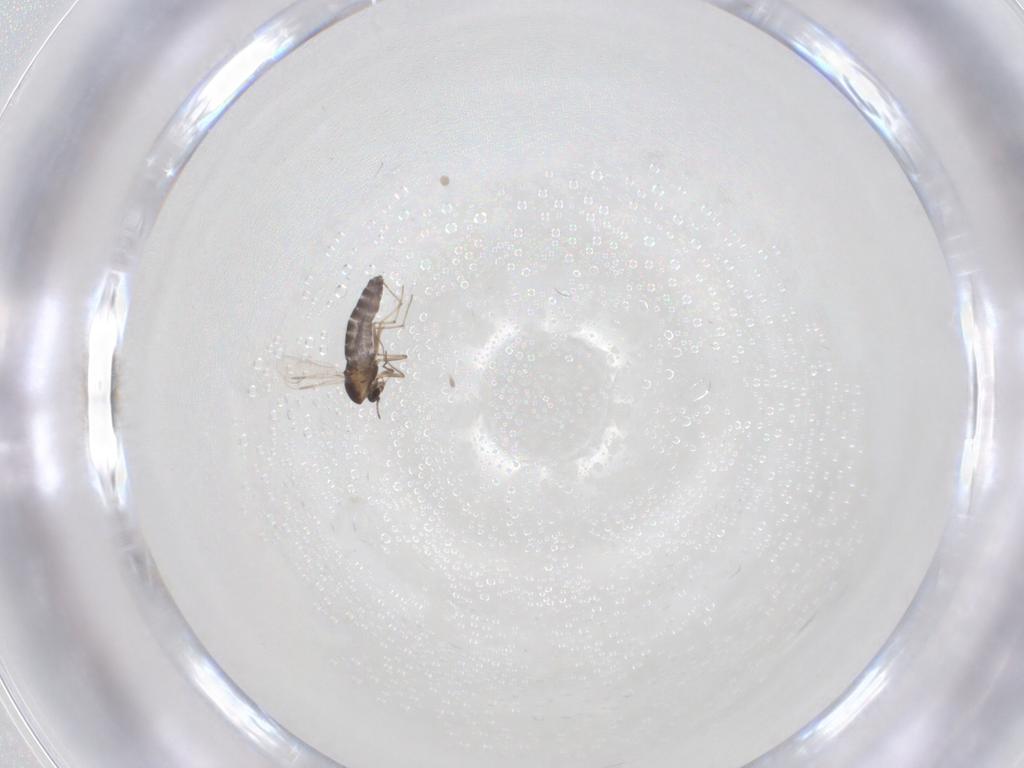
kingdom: Animalia
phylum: Arthropoda
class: Insecta
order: Diptera
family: Chironomidae
